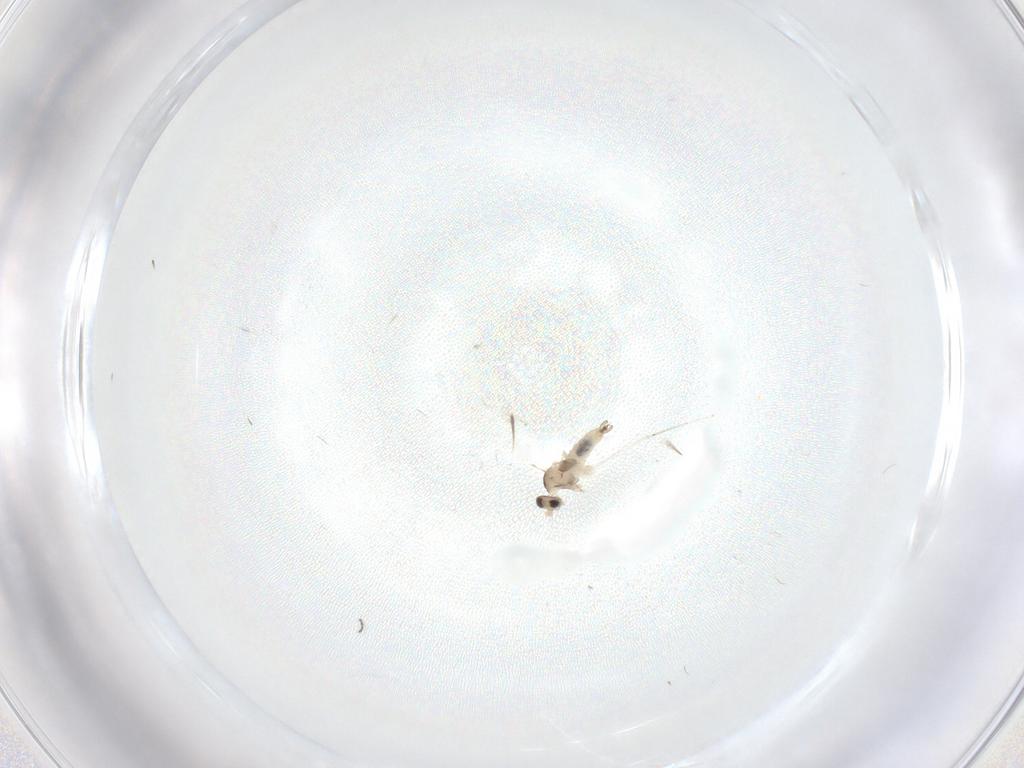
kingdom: Animalia
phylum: Arthropoda
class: Insecta
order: Diptera
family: Cecidomyiidae
